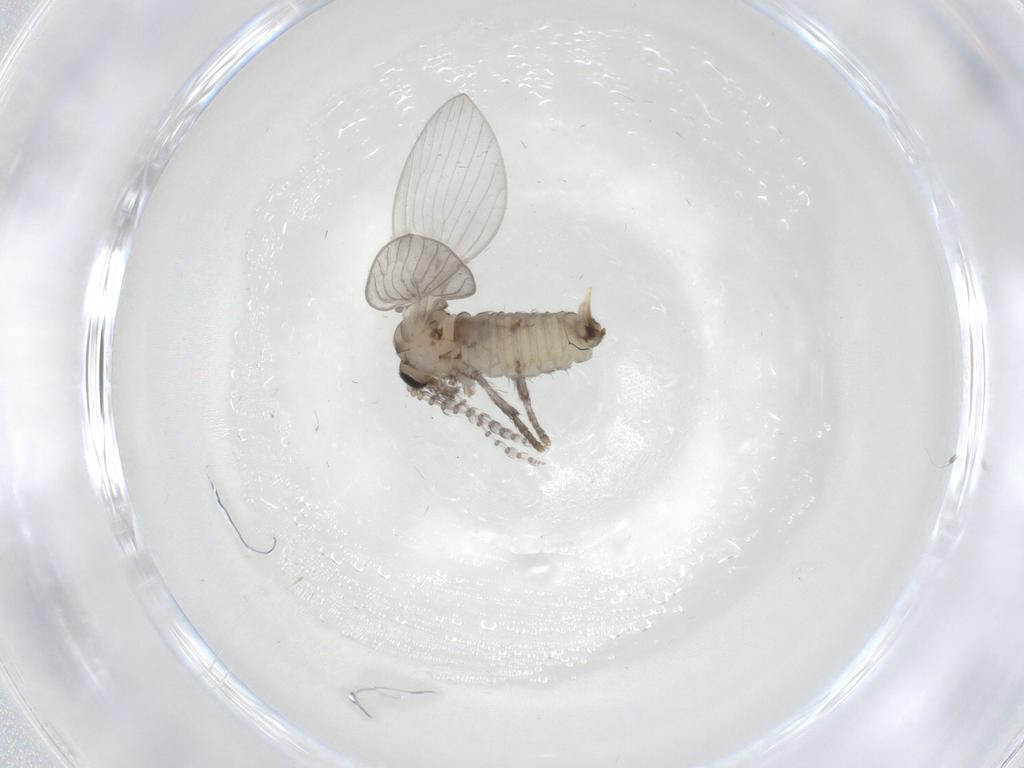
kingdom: Animalia
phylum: Arthropoda
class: Insecta
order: Diptera
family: Psychodidae
